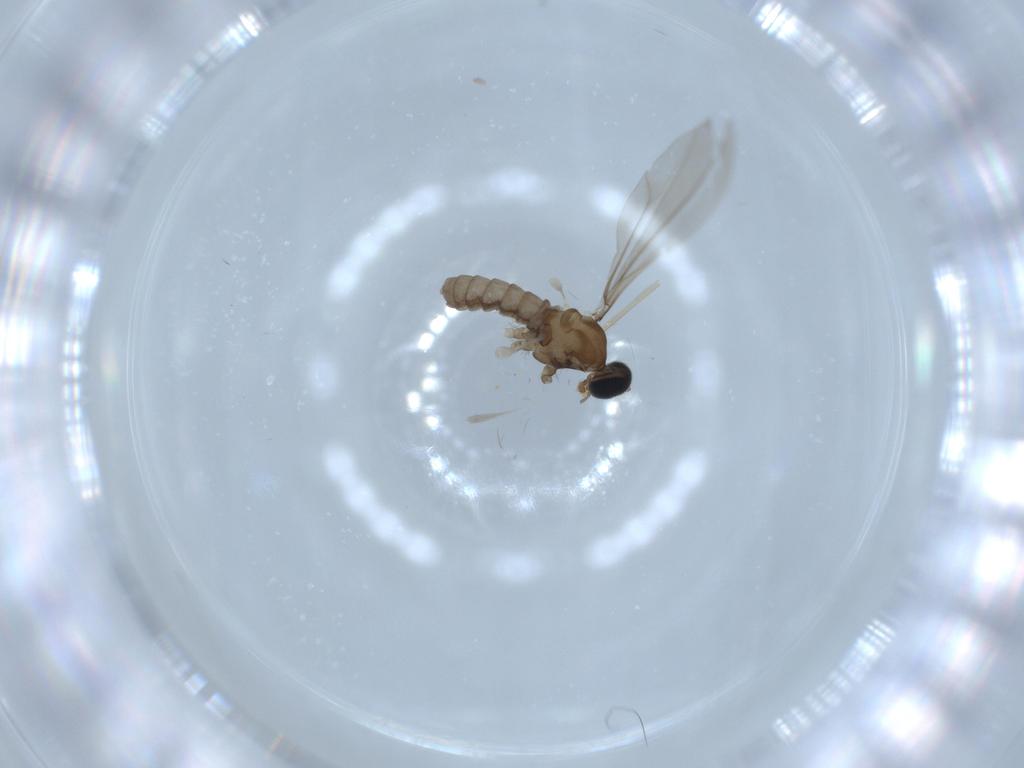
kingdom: Animalia
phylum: Arthropoda
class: Insecta
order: Diptera
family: Cecidomyiidae
